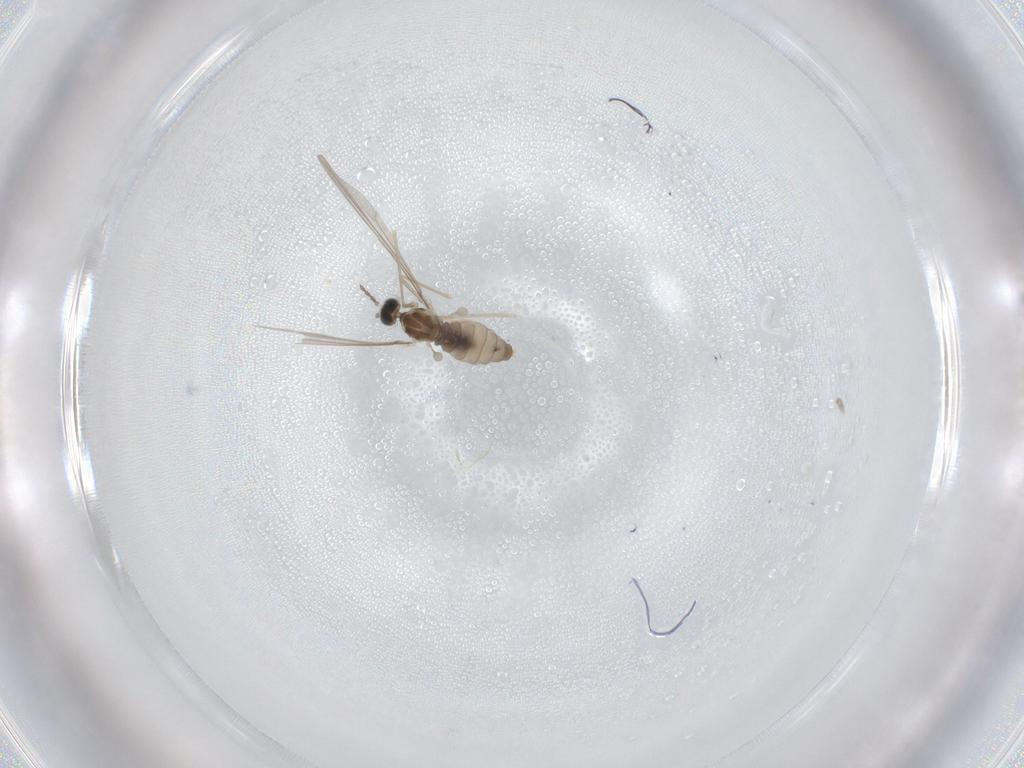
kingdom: Animalia
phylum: Arthropoda
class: Insecta
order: Diptera
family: Cecidomyiidae
